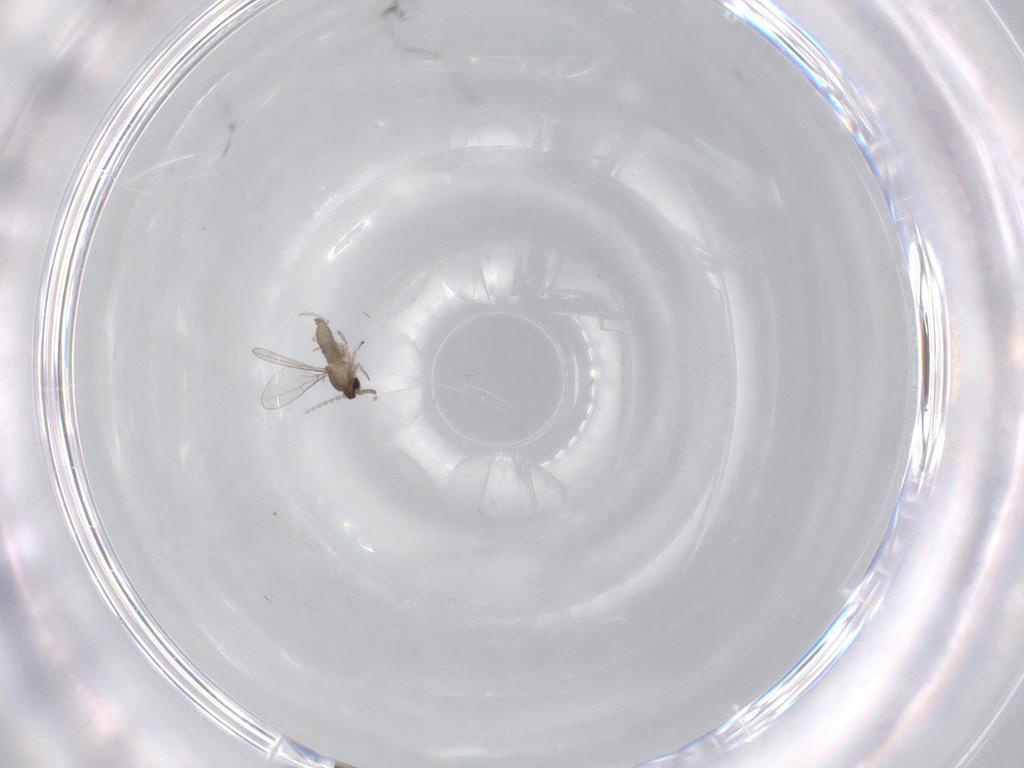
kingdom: Animalia
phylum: Arthropoda
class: Insecta
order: Diptera
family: Cecidomyiidae
